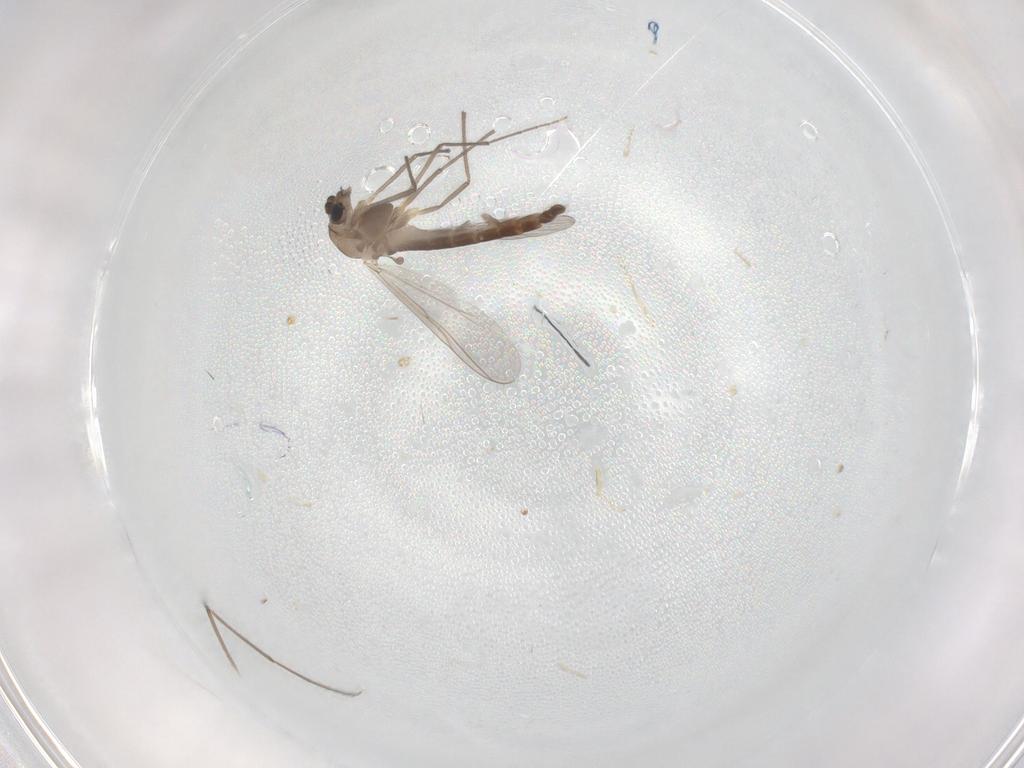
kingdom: Animalia
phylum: Arthropoda
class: Insecta
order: Diptera
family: Chironomidae
